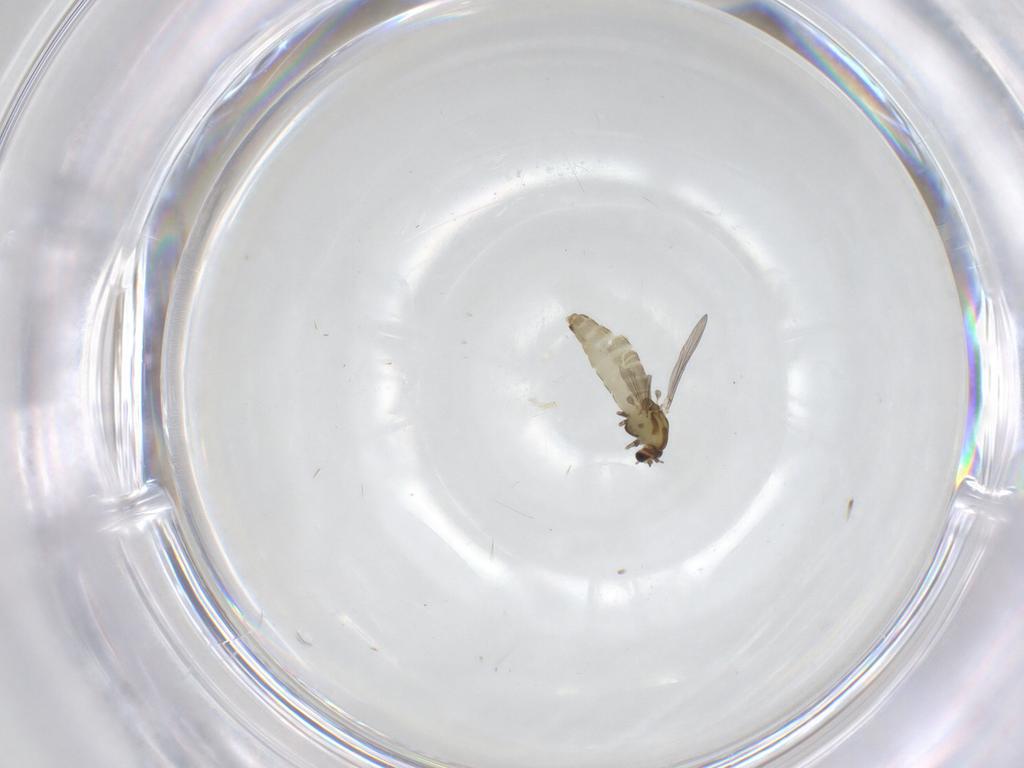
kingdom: Animalia
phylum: Arthropoda
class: Insecta
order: Diptera
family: Chironomidae
